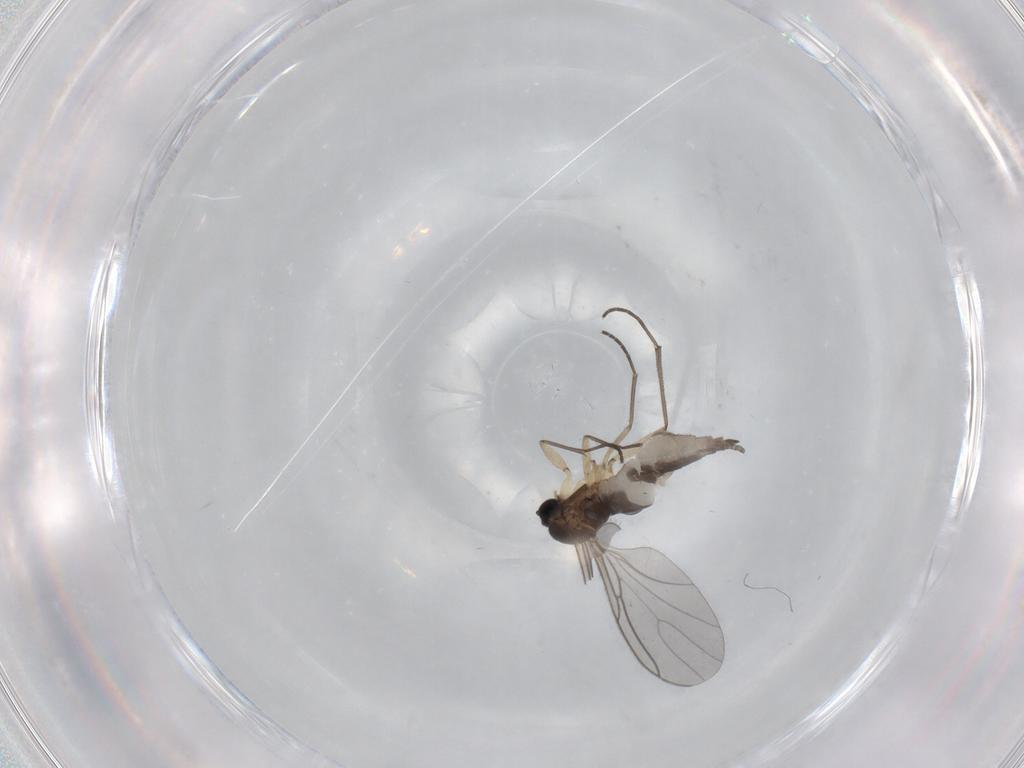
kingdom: Animalia
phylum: Arthropoda
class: Insecta
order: Diptera
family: Sciaridae
